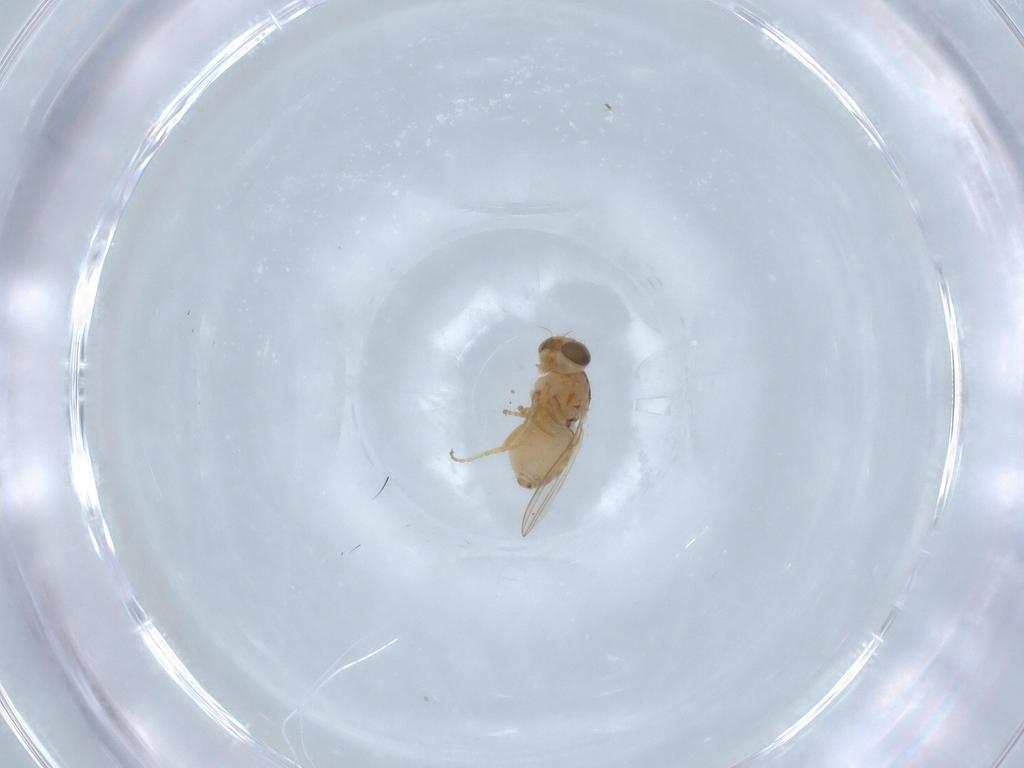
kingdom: Animalia
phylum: Arthropoda
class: Insecta
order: Diptera
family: Chyromyidae
